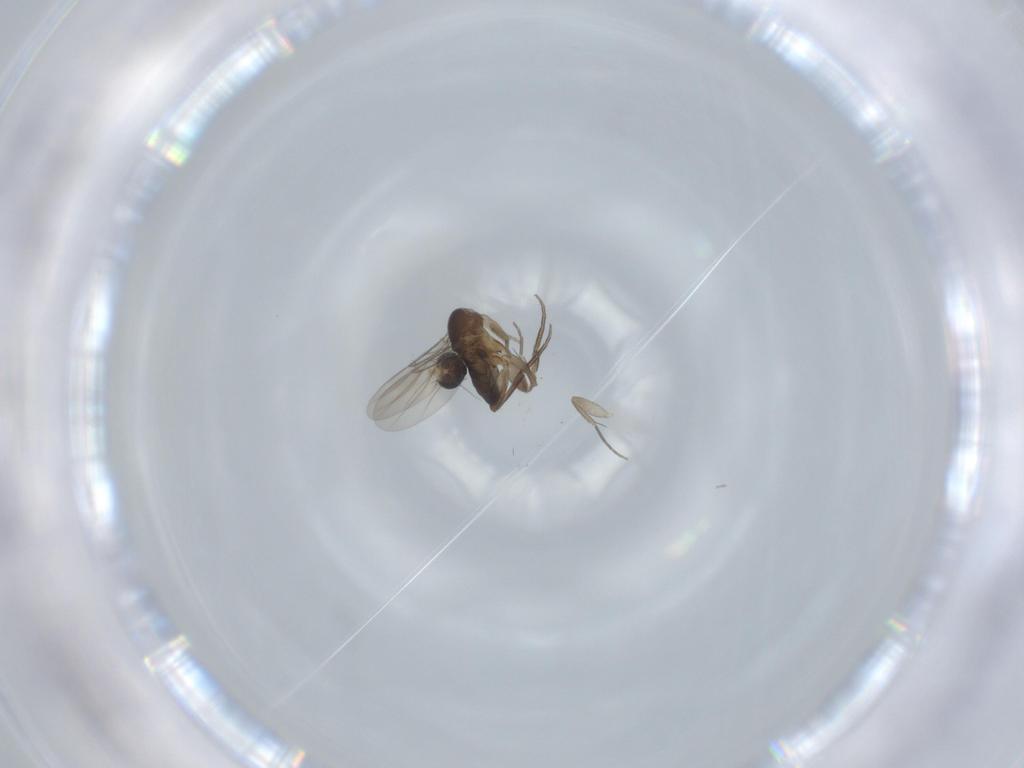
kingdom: Animalia
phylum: Arthropoda
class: Insecta
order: Diptera
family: Phoridae
